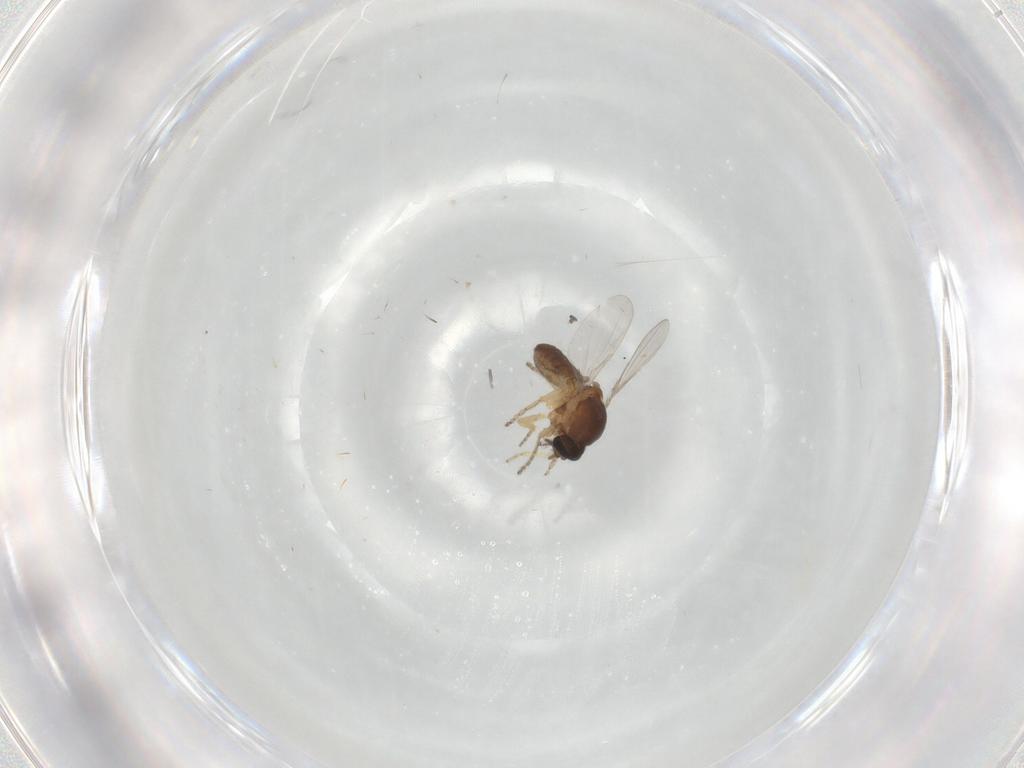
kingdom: Animalia
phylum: Arthropoda
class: Insecta
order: Diptera
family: Ceratopogonidae
